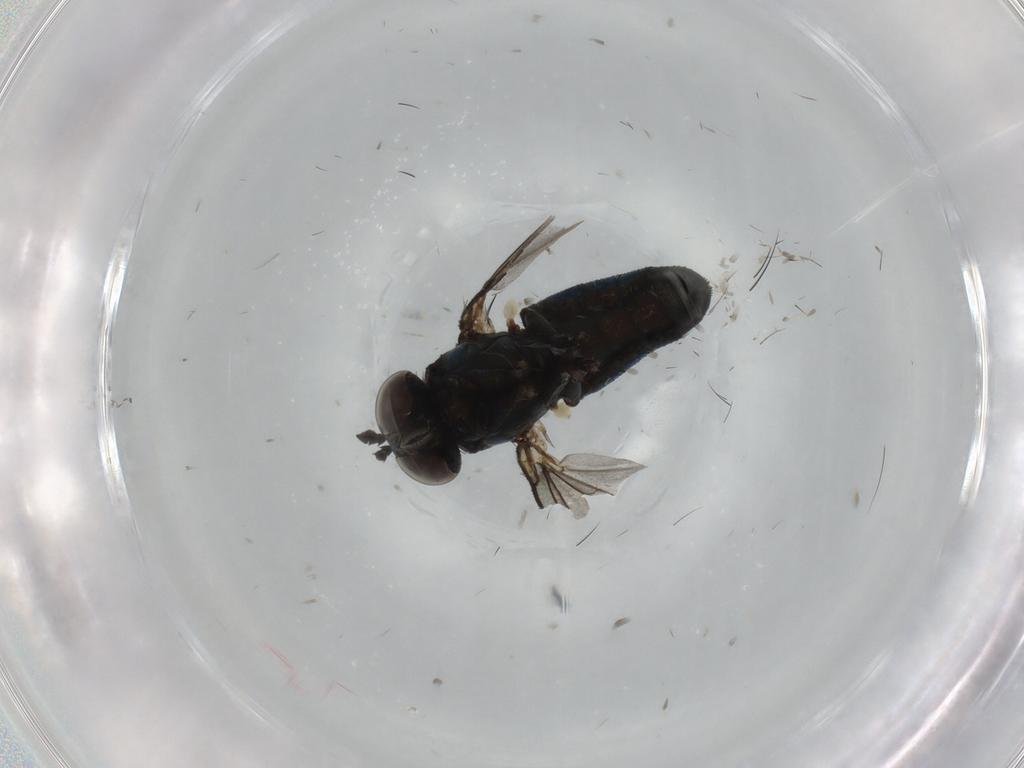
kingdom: Animalia
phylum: Arthropoda
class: Insecta
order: Diptera
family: Dolichopodidae
